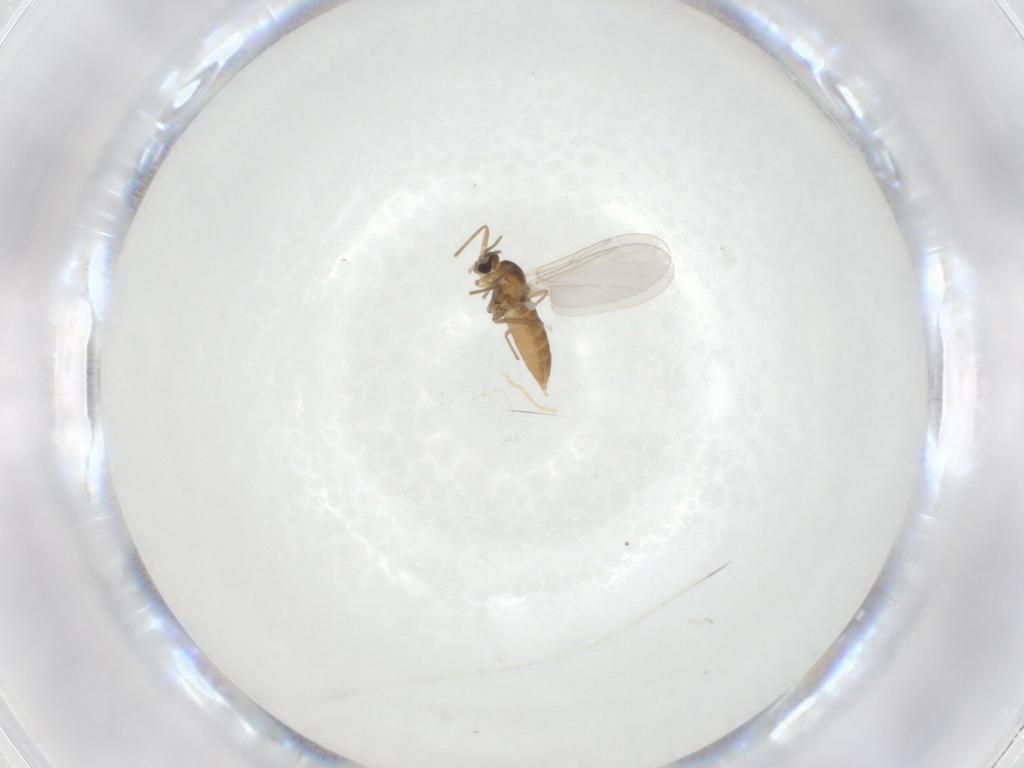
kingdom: Animalia
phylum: Arthropoda
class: Insecta
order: Diptera
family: Cecidomyiidae
